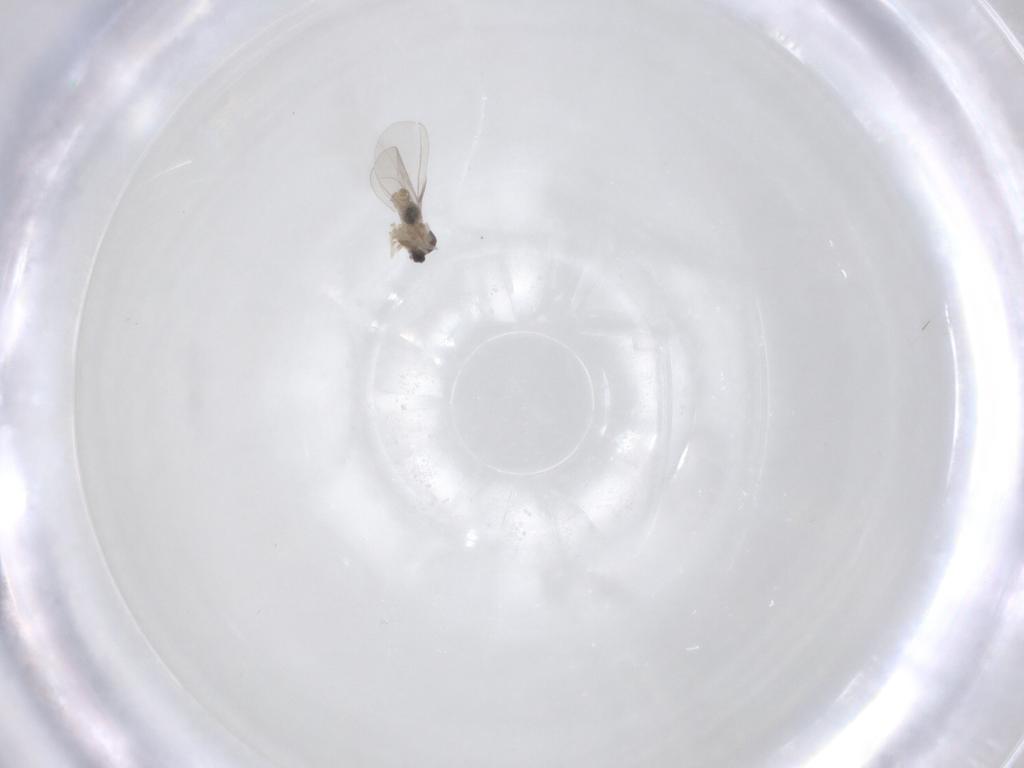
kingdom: Animalia
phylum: Arthropoda
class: Insecta
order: Diptera
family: Cecidomyiidae
